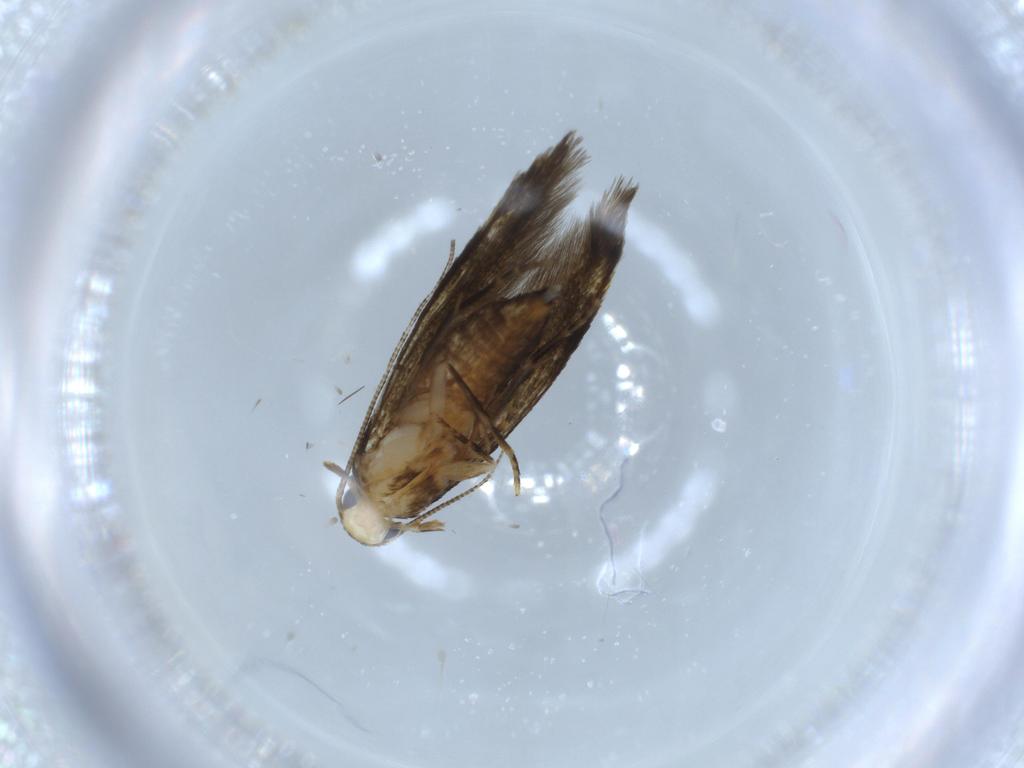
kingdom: Animalia
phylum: Arthropoda
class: Insecta
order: Lepidoptera
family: Tineidae
